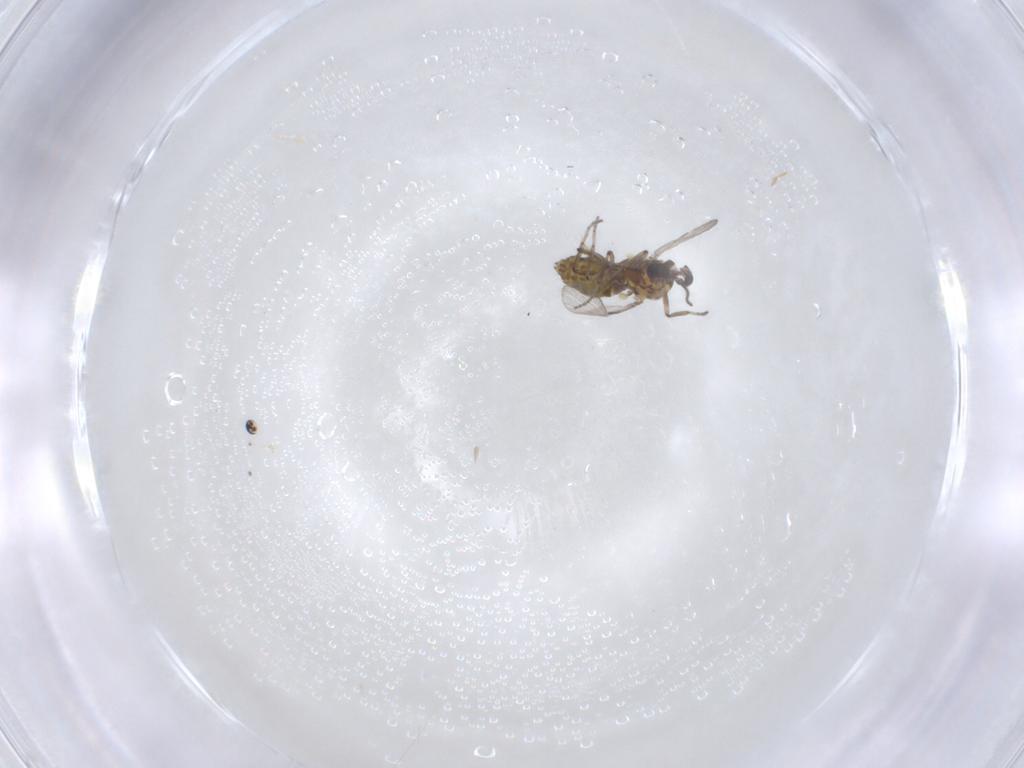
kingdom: Animalia
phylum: Arthropoda
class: Insecta
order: Diptera
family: Ceratopogonidae
